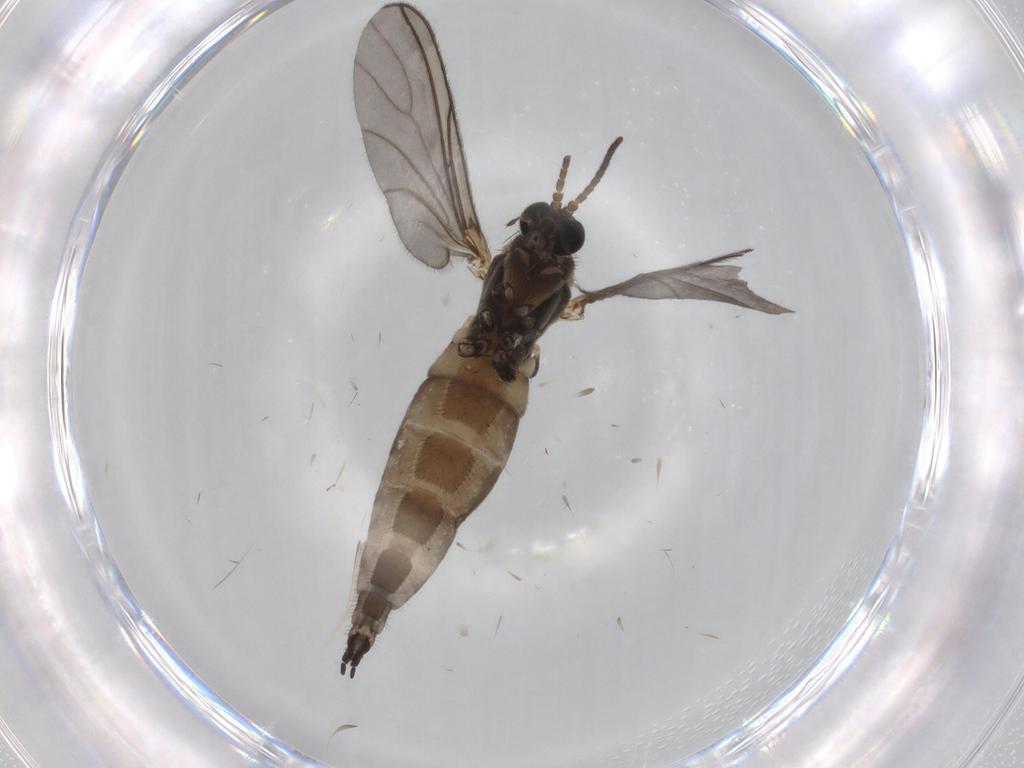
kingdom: Animalia
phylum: Arthropoda
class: Insecta
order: Diptera
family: Sciaridae
